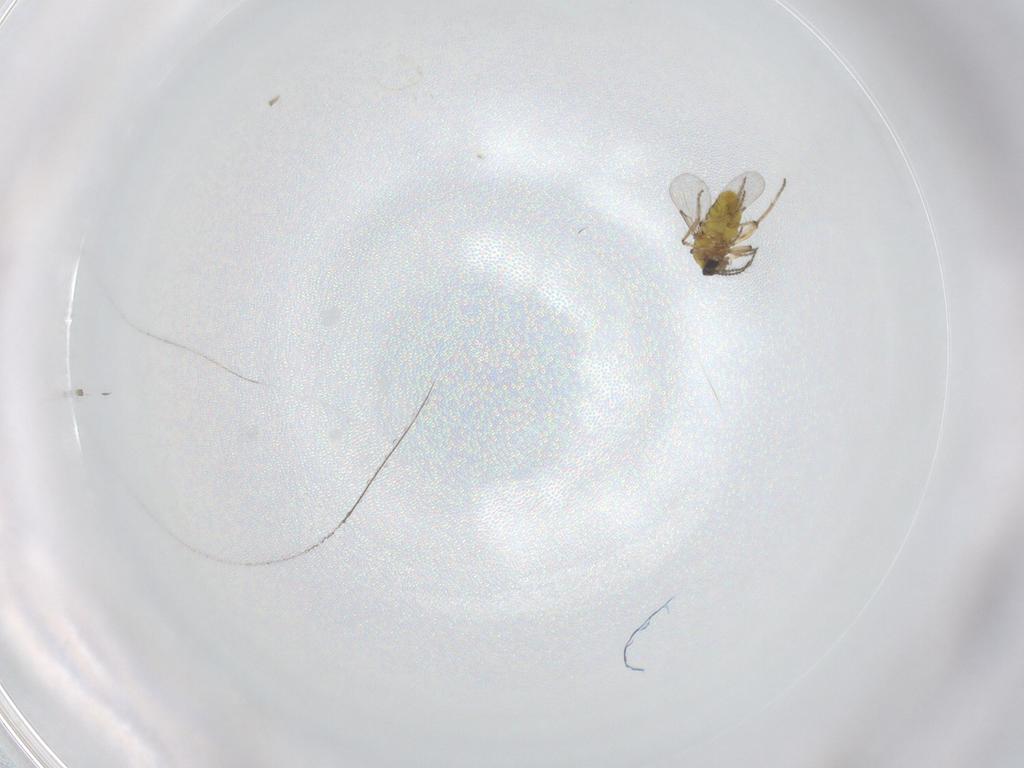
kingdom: Animalia
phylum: Arthropoda
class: Insecta
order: Diptera
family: Ceratopogonidae
